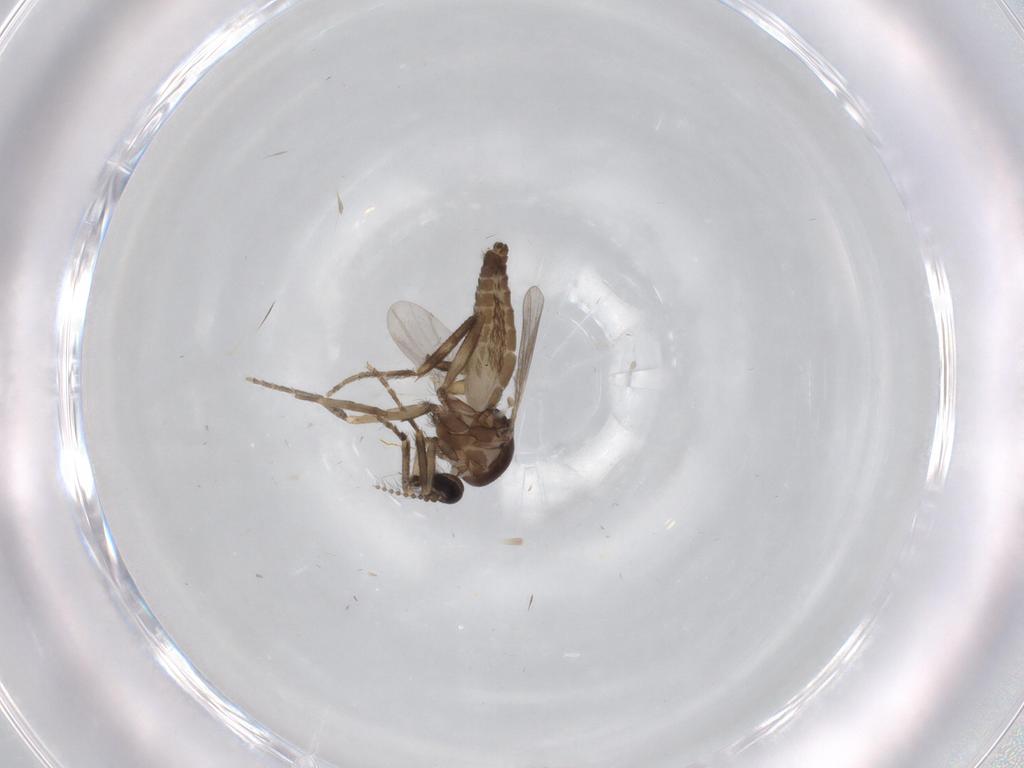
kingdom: Animalia
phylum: Arthropoda
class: Insecta
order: Diptera
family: Ceratopogonidae
